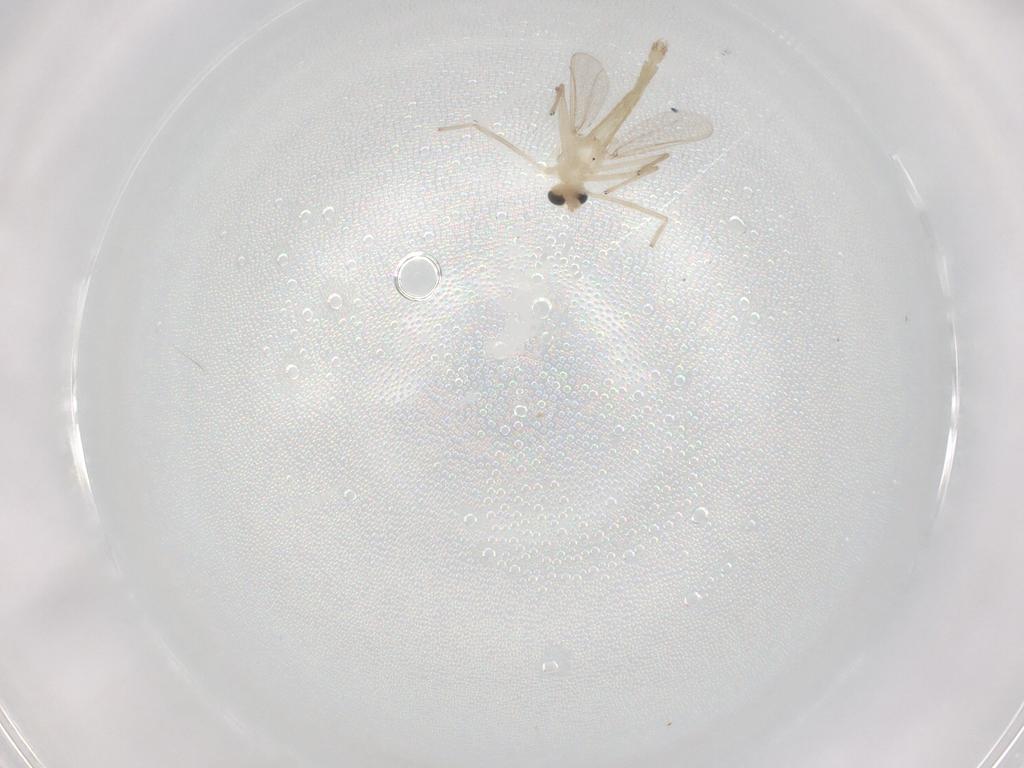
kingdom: Animalia
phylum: Arthropoda
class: Insecta
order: Diptera
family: Chironomidae
